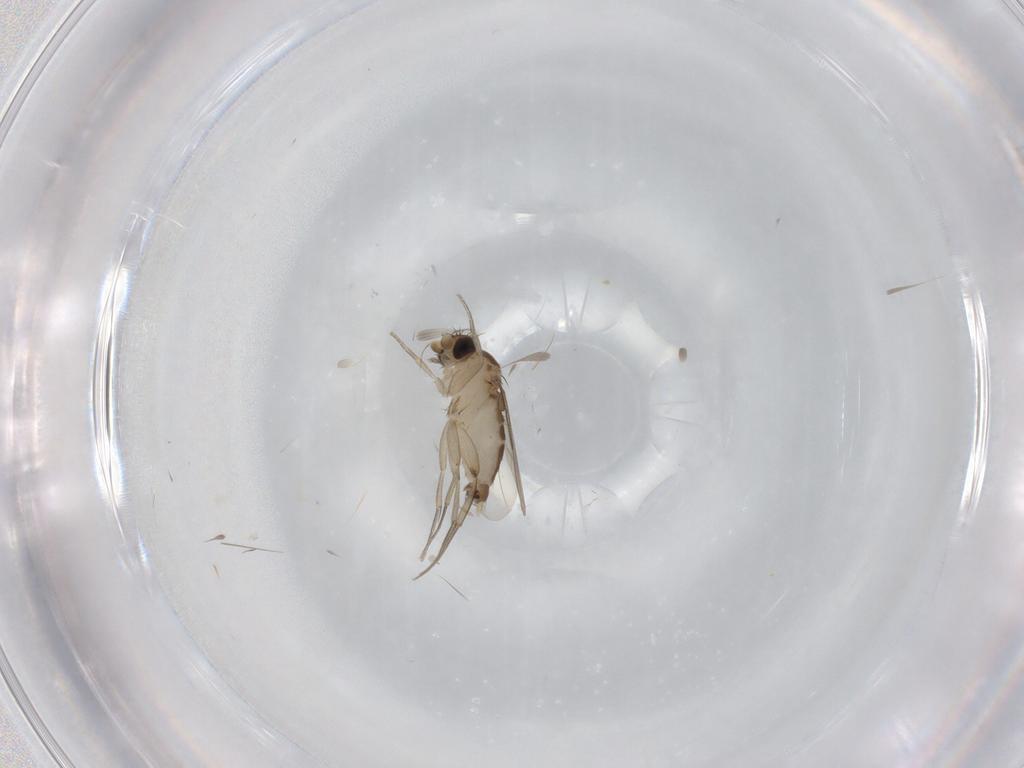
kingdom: Animalia
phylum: Arthropoda
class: Insecta
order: Diptera
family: Phoridae
